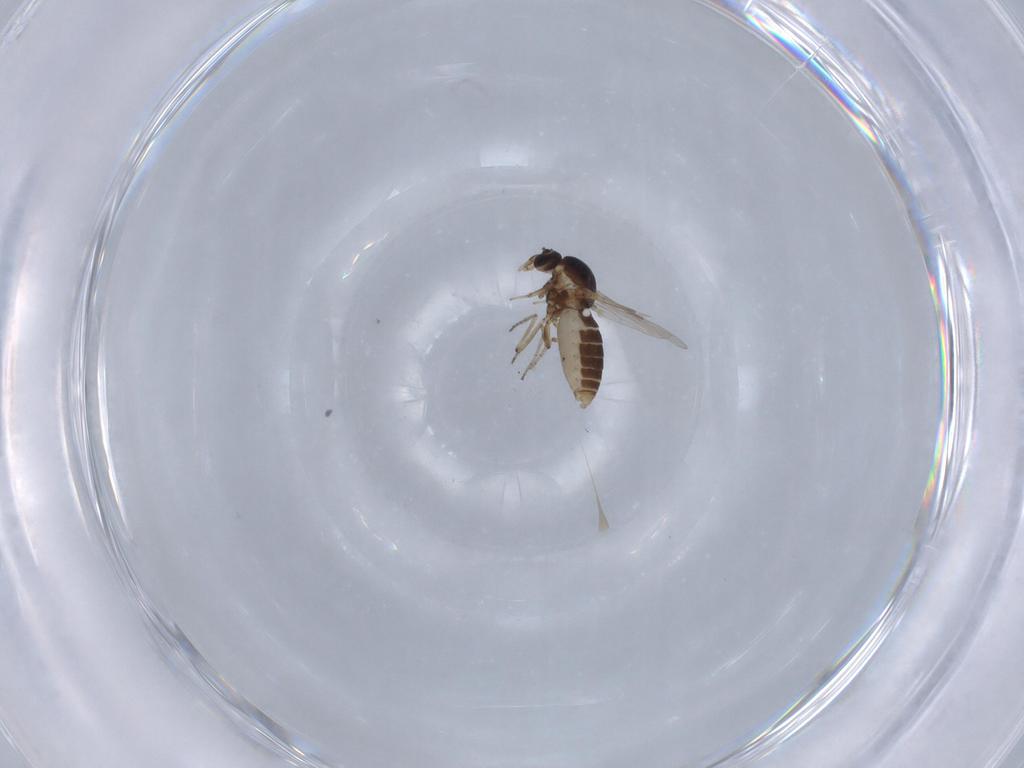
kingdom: Animalia
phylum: Arthropoda
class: Insecta
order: Diptera
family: Ceratopogonidae
